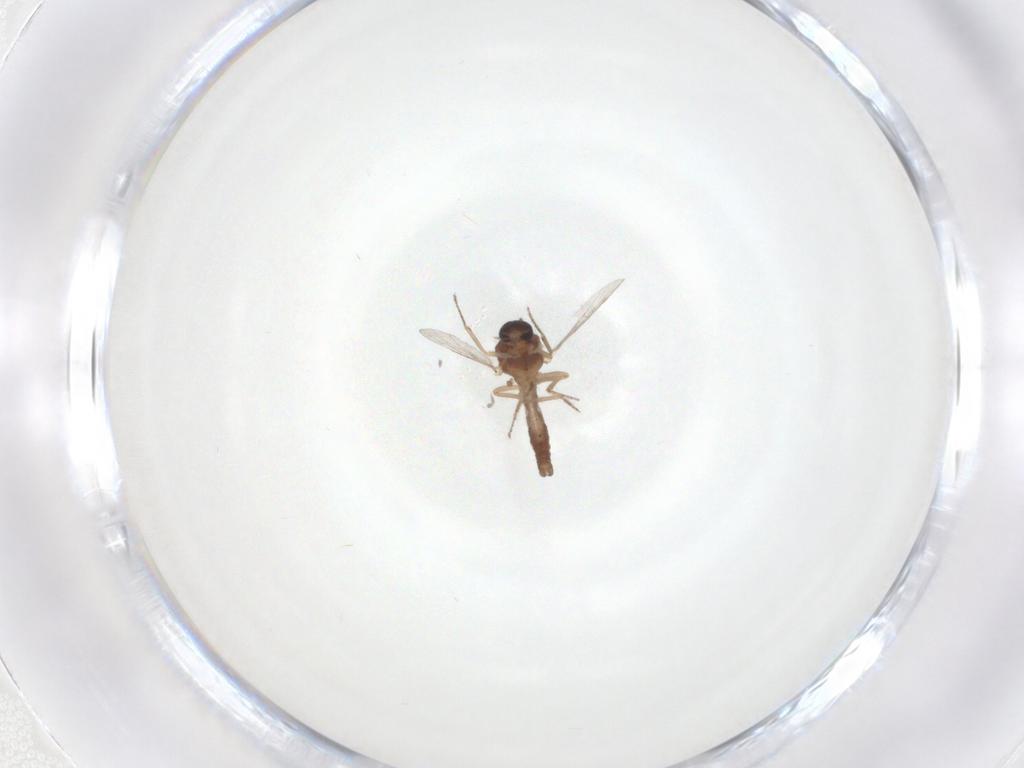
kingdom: Animalia
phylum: Arthropoda
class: Insecta
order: Diptera
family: Ceratopogonidae
